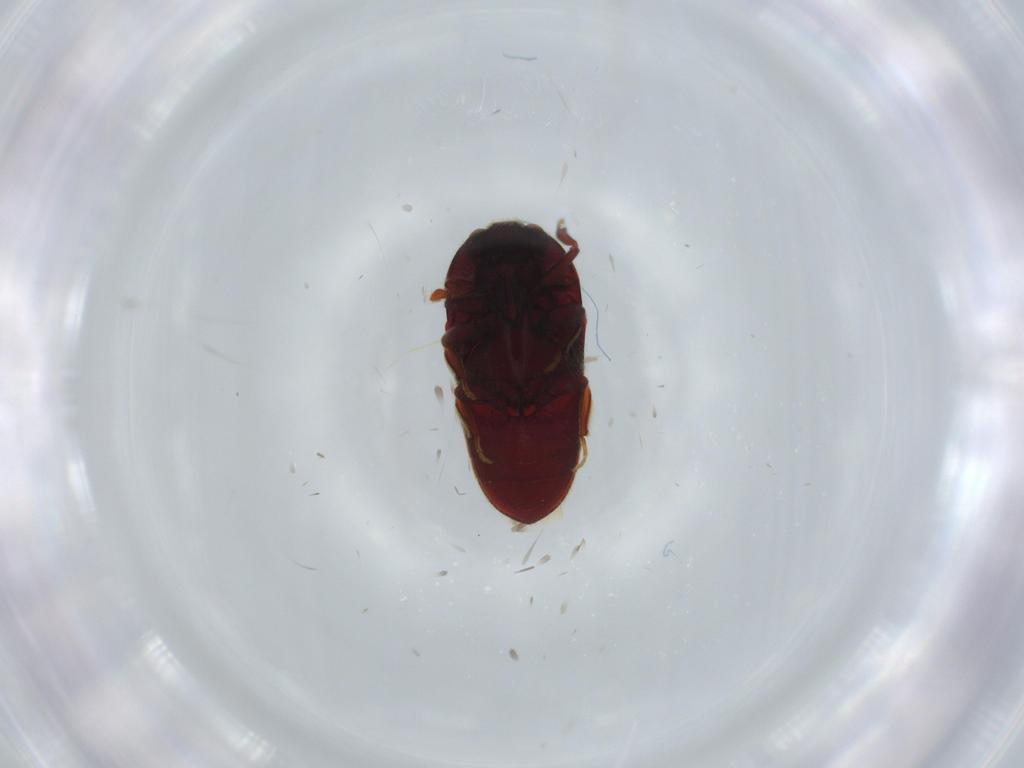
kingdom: Animalia
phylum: Arthropoda
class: Insecta
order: Coleoptera
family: Throscidae
